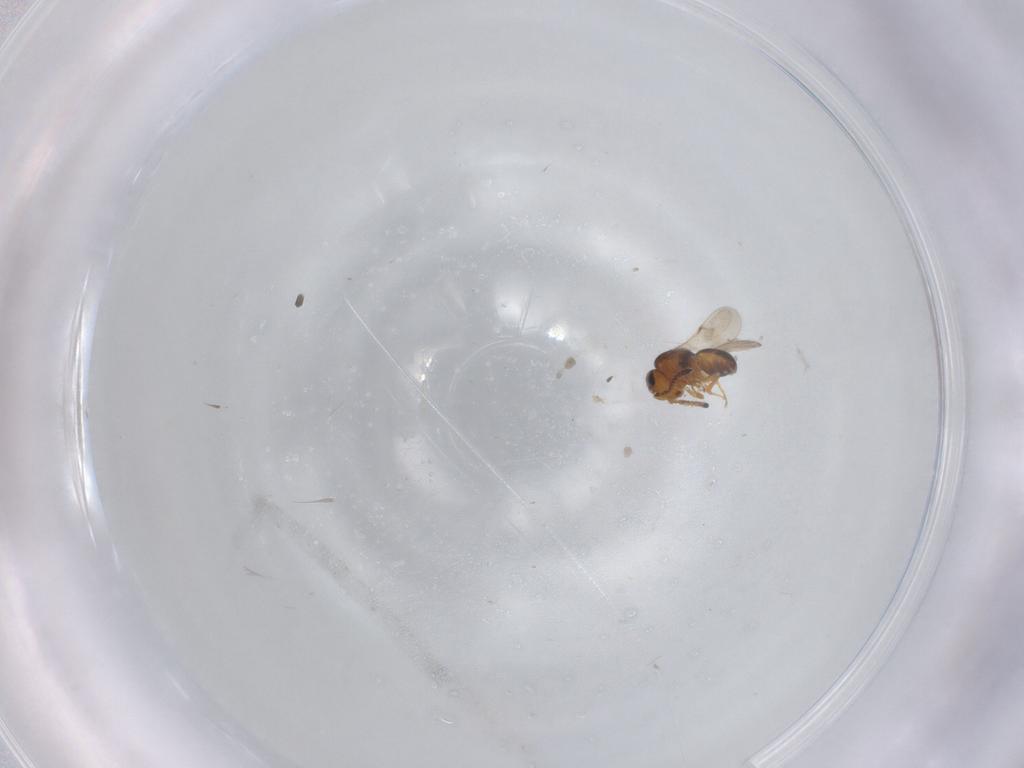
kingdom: Animalia
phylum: Arthropoda
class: Insecta
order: Hymenoptera
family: Scelionidae
